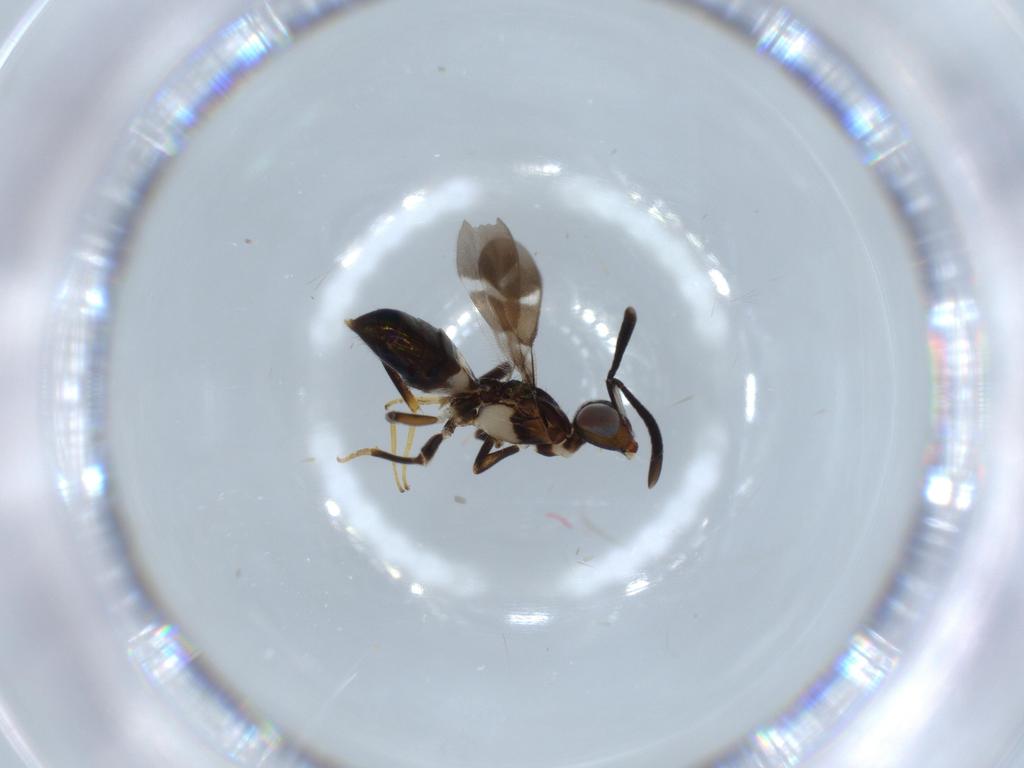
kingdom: Animalia
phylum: Arthropoda
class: Insecta
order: Hymenoptera
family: Eupelmidae
